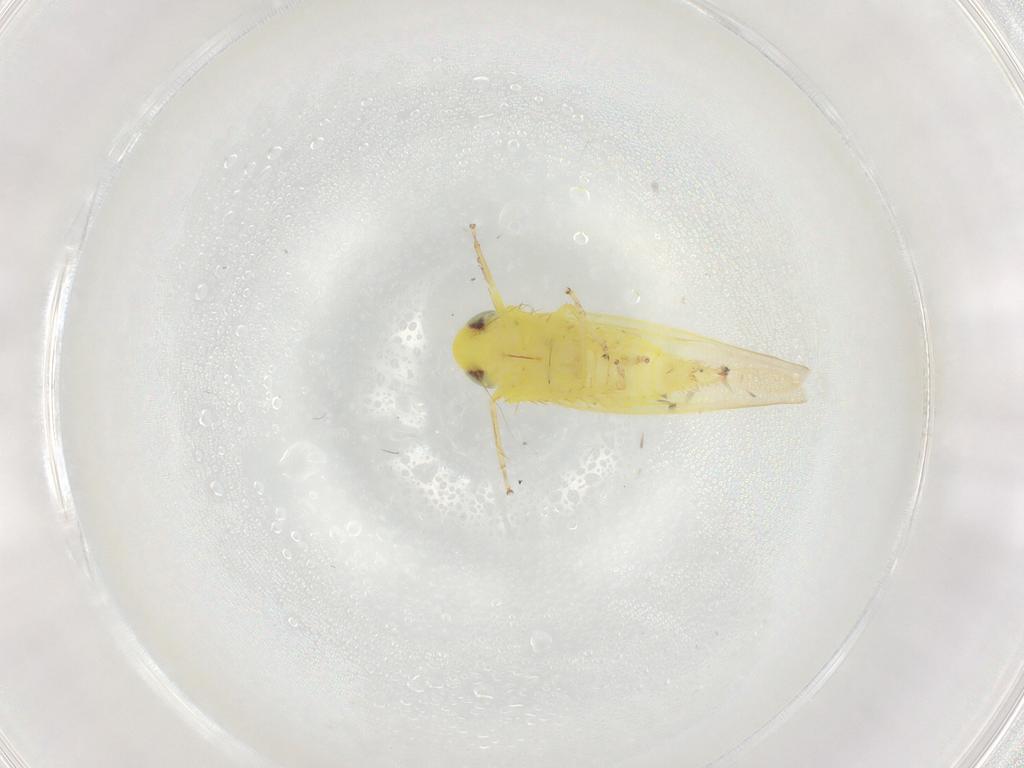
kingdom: Animalia
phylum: Arthropoda
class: Insecta
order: Hemiptera
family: Cicadellidae
